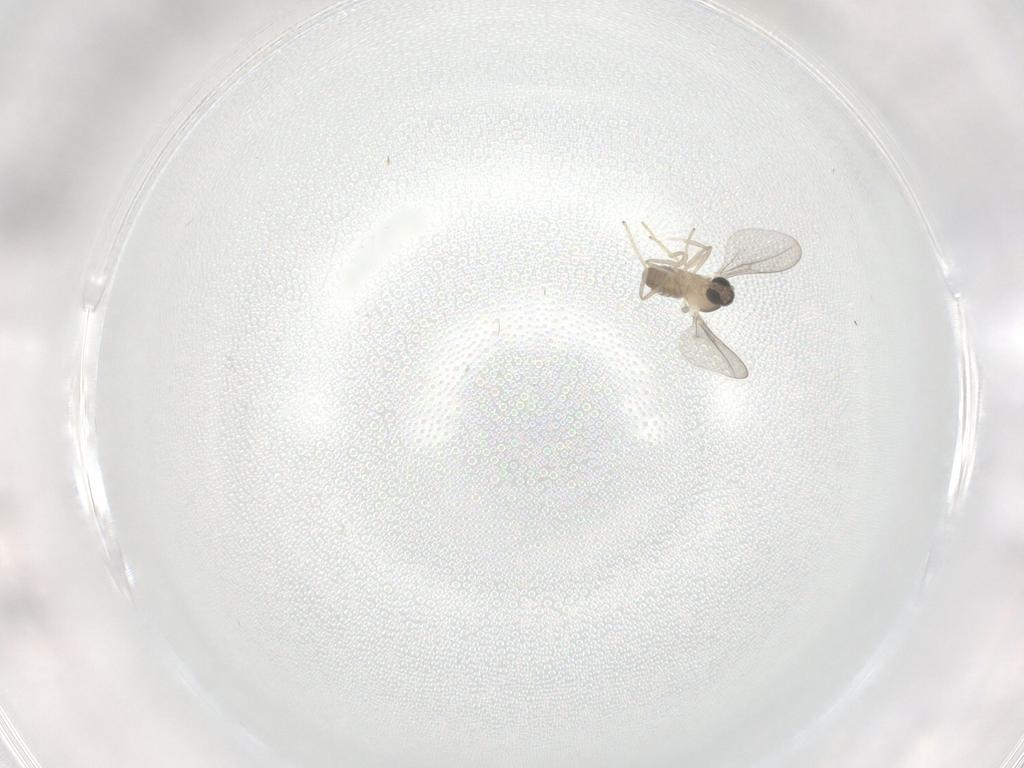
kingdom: Animalia
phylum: Arthropoda
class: Insecta
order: Diptera
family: Cecidomyiidae
